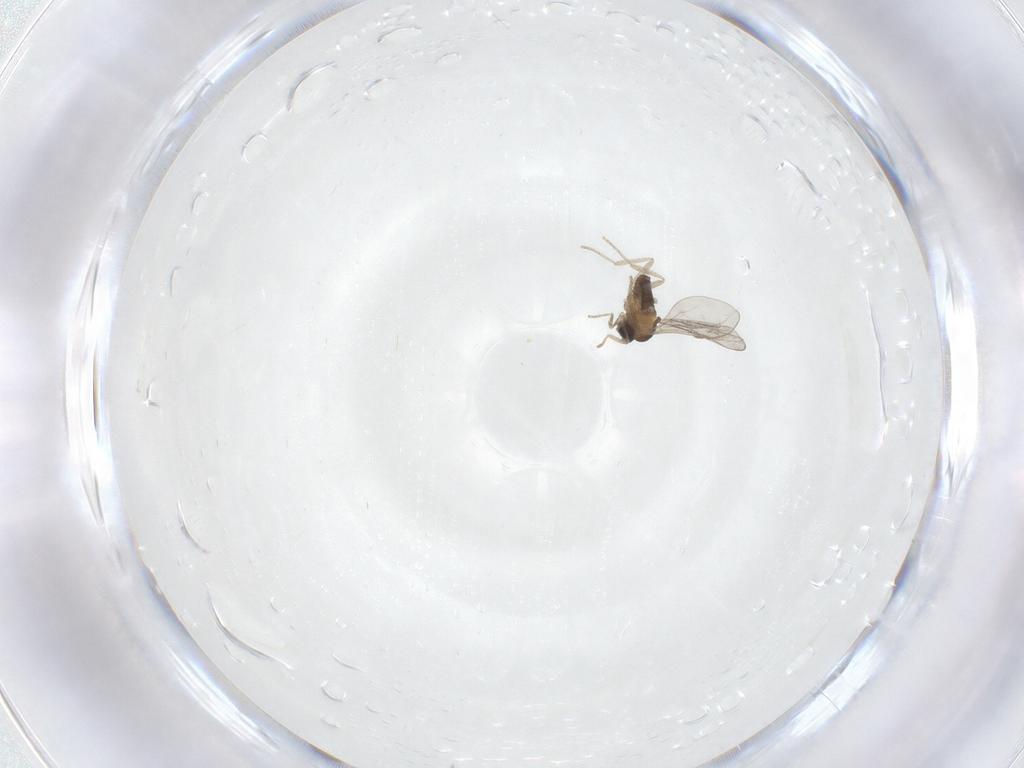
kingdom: Animalia
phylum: Arthropoda
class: Insecta
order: Diptera
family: Cecidomyiidae
